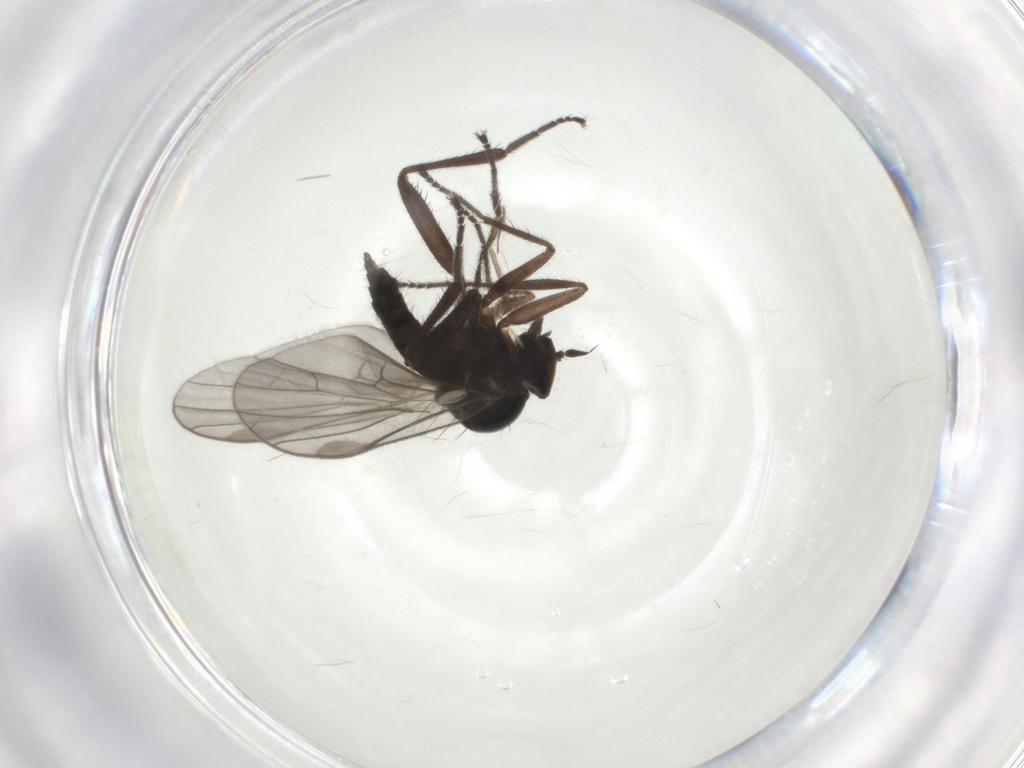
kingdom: Animalia
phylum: Arthropoda
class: Insecta
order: Diptera
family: Hybotidae
